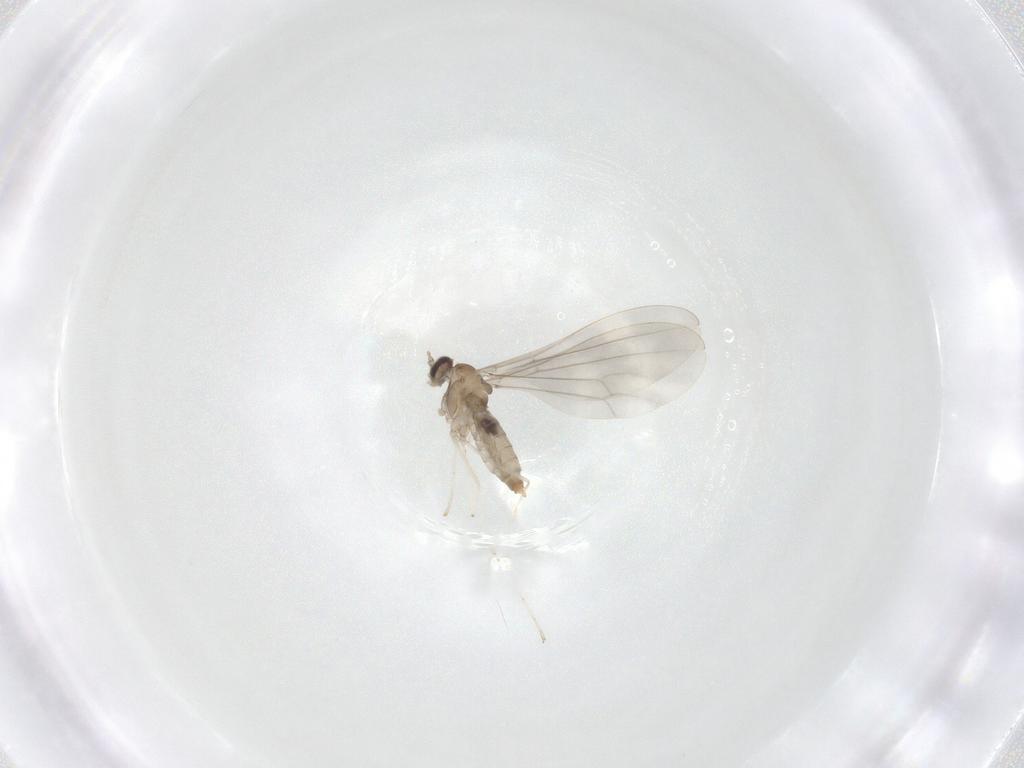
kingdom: Animalia
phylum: Arthropoda
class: Insecta
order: Diptera
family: Cecidomyiidae
